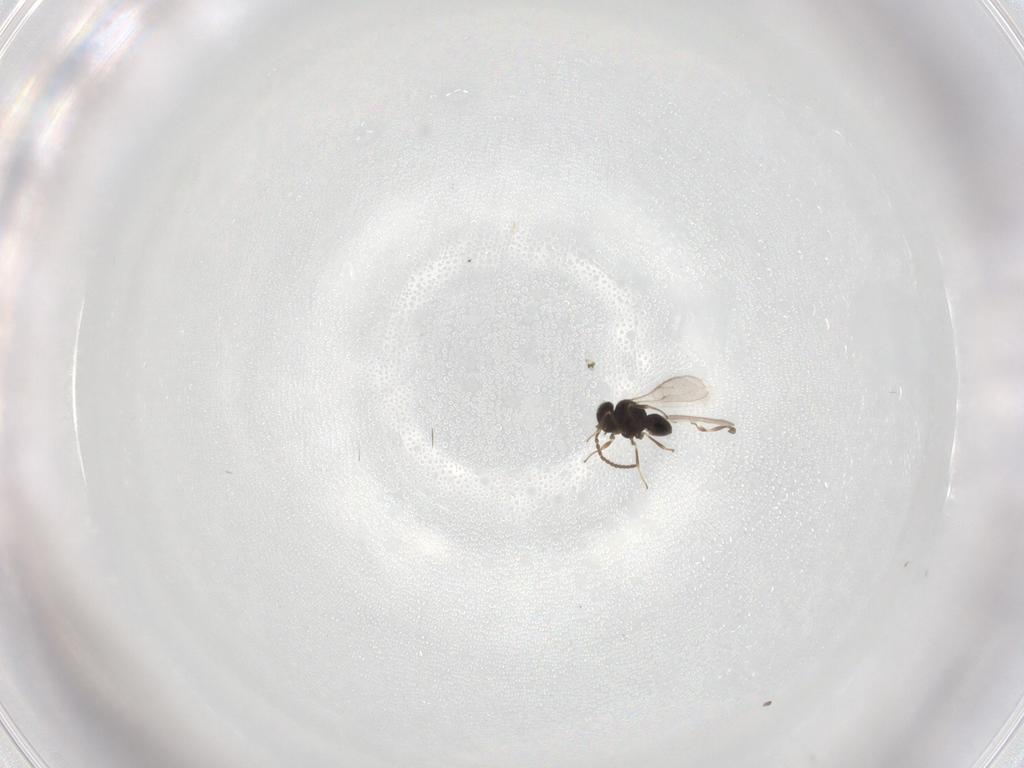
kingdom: Animalia
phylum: Arthropoda
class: Insecta
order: Hymenoptera
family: Scelionidae
